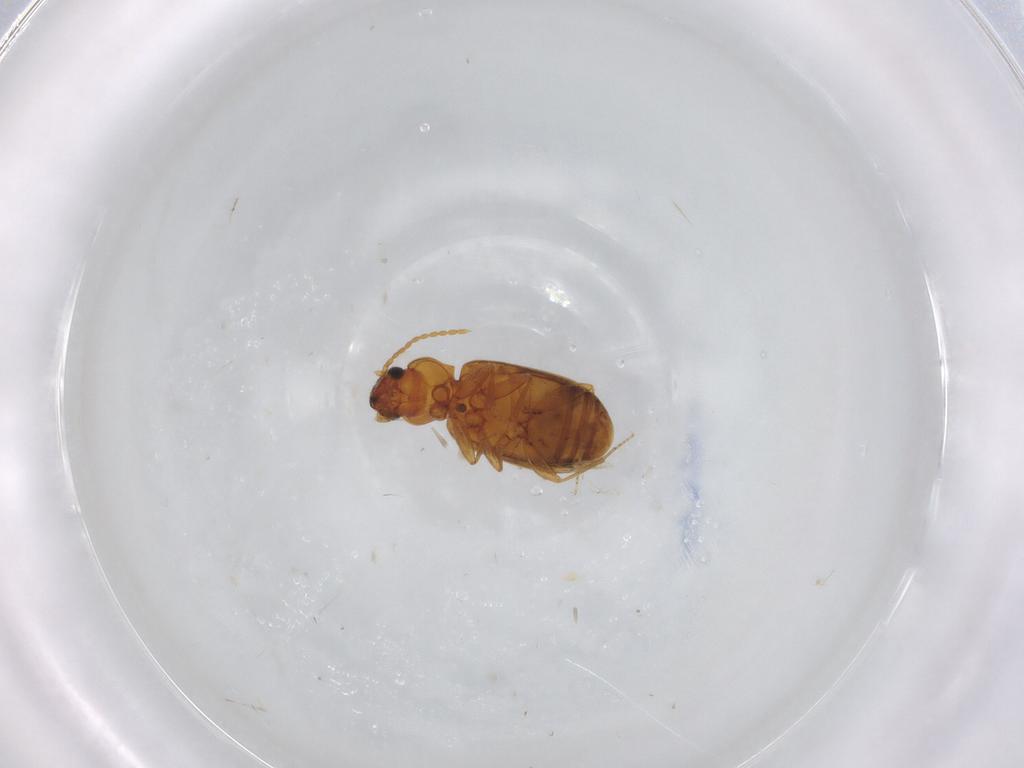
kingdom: Animalia
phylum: Arthropoda
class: Insecta
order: Coleoptera
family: Carabidae
